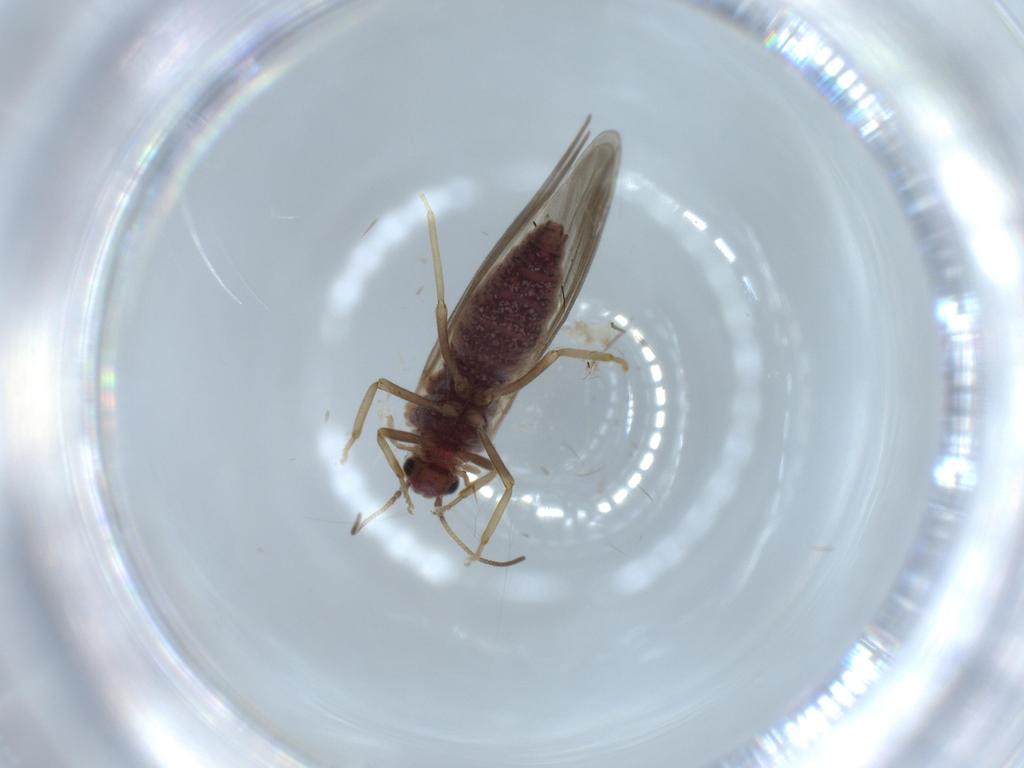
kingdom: Animalia
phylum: Arthropoda
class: Insecta
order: Neuroptera
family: Coniopterygidae
